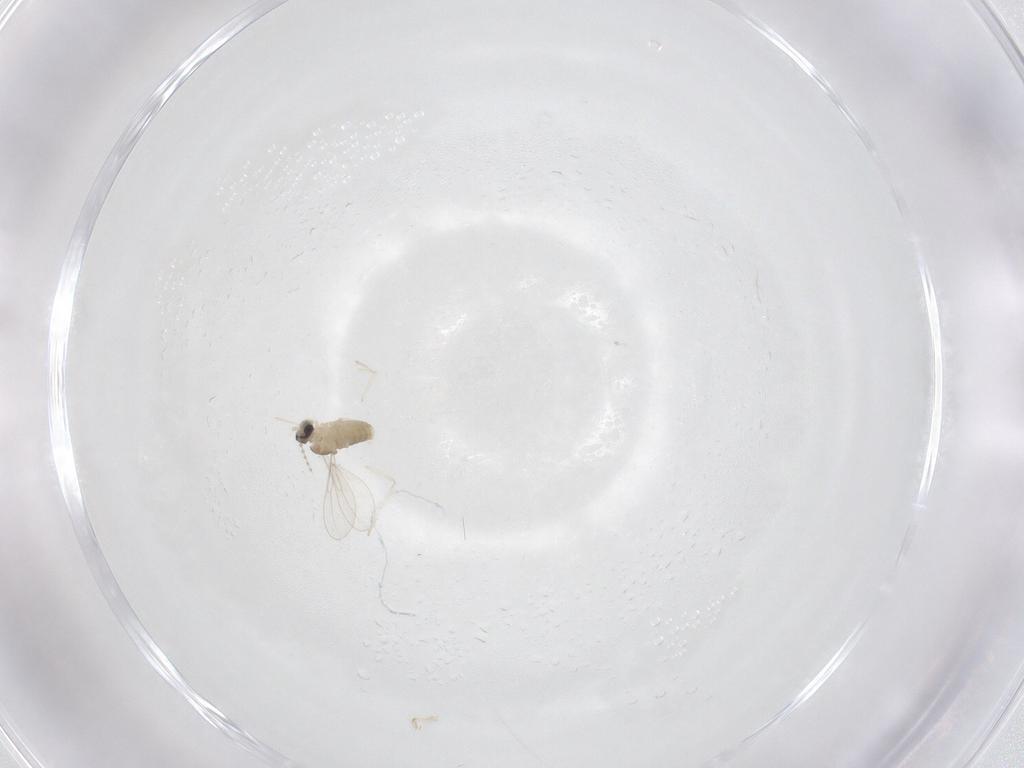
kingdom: Animalia
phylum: Arthropoda
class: Insecta
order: Diptera
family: Cecidomyiidae
